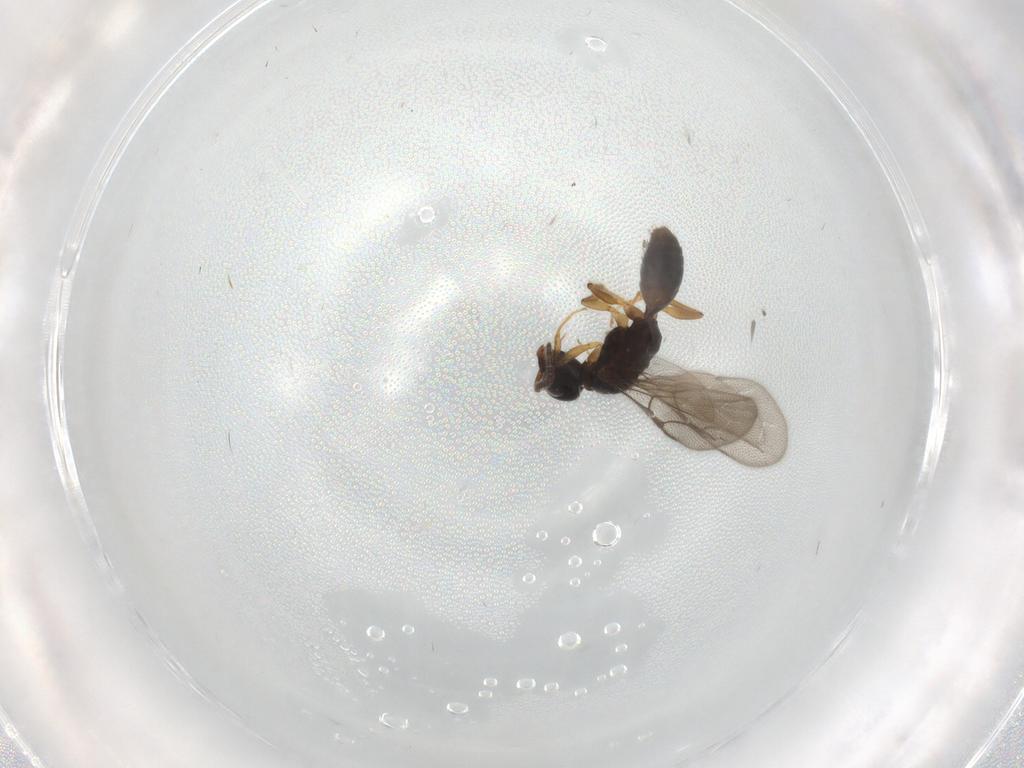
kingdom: Animalia
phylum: Arthropoda
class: Insecta
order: Hymenoptera
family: Bethylidae
